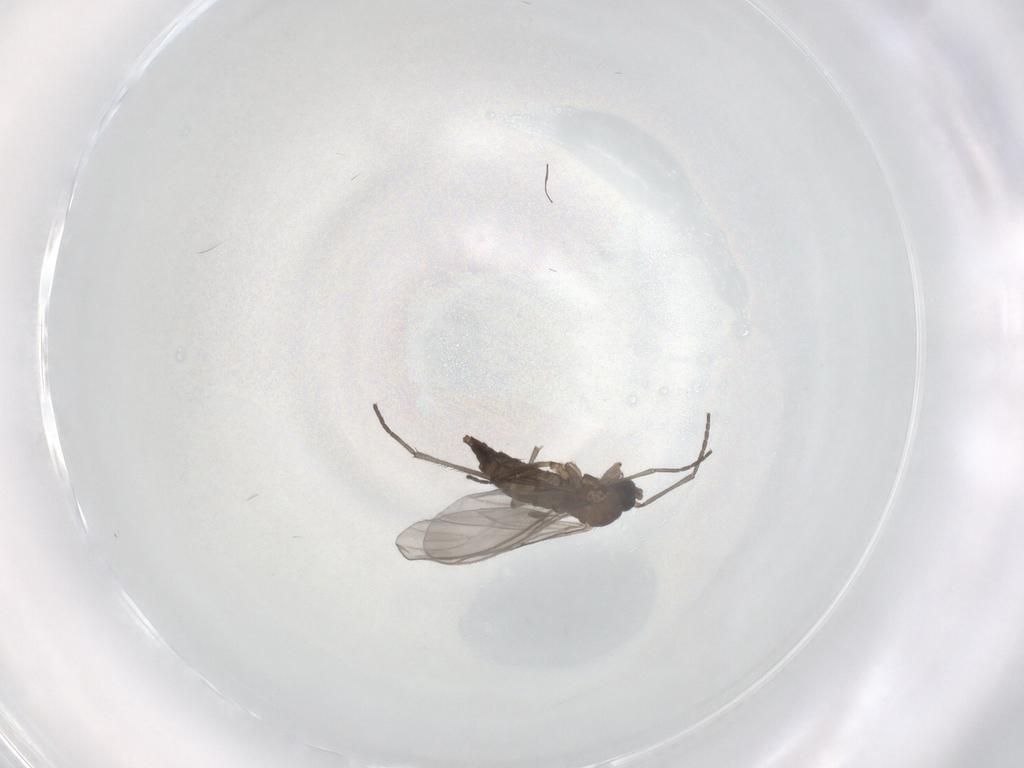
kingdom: Animalia
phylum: Arthropoda
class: Insecta
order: Diptera
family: Sciaridae
